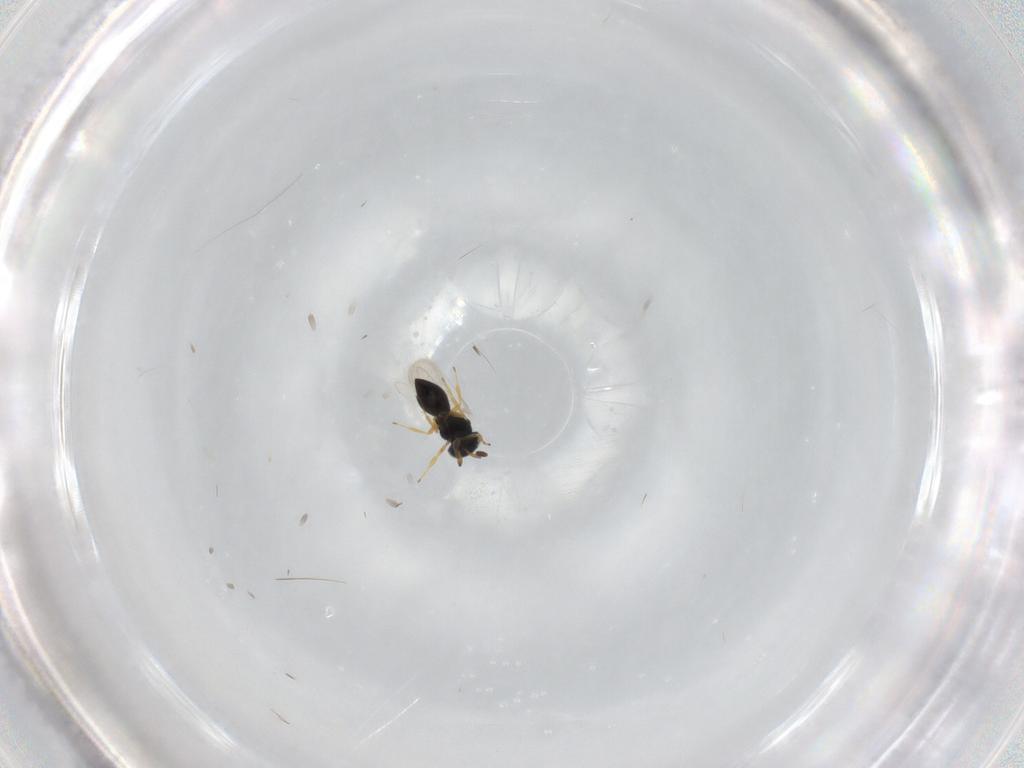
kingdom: Animalia
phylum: Arthropoda
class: Insecta
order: Hymenoptera
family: Scelionidae
